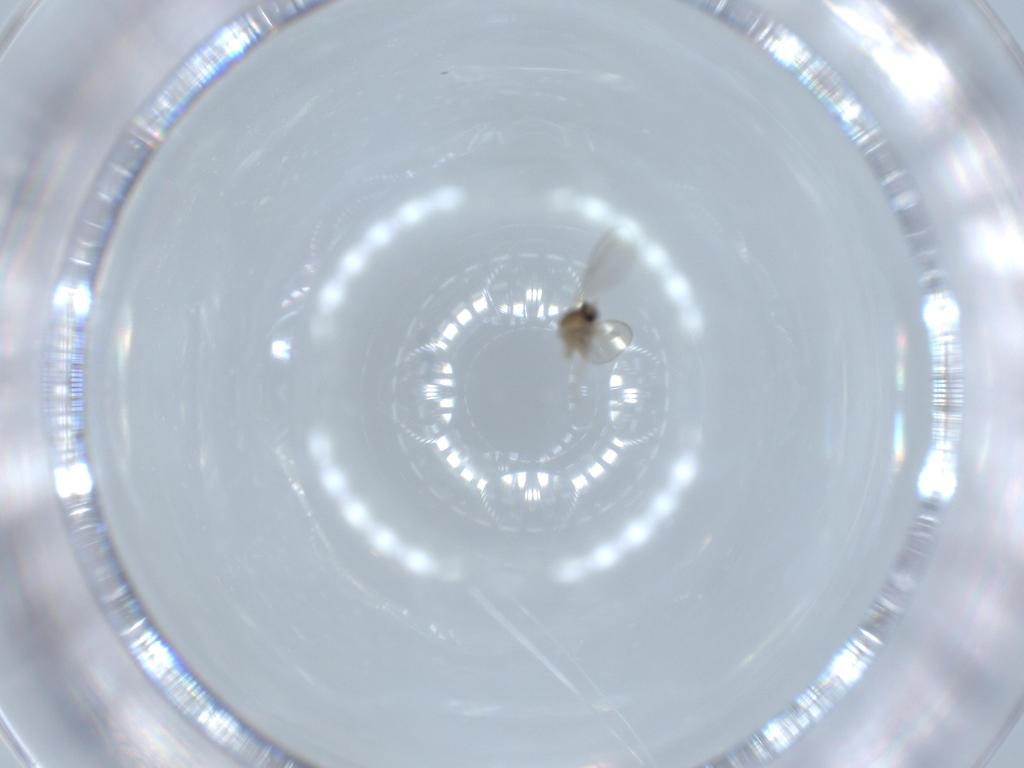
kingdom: Animalia
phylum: Arthropoda
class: Insecta
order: Diptera
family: Cecidomyiidae
